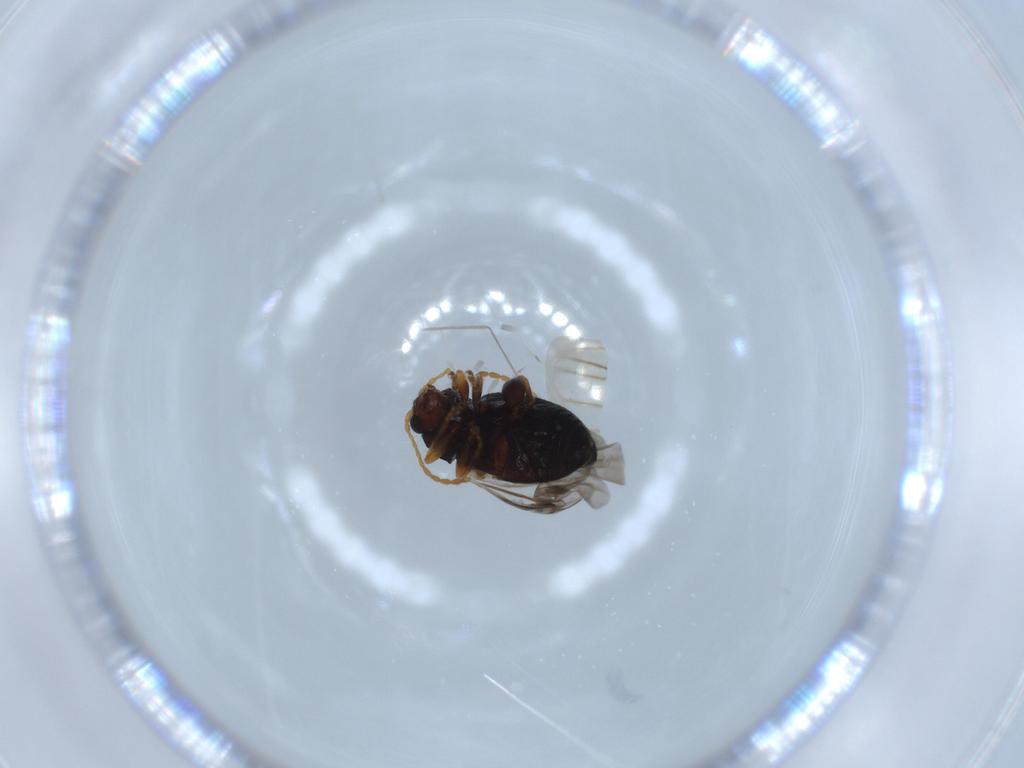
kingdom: Animalia
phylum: Arthropoda
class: Insecta
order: Coleoptera
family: Chrysomelidae
